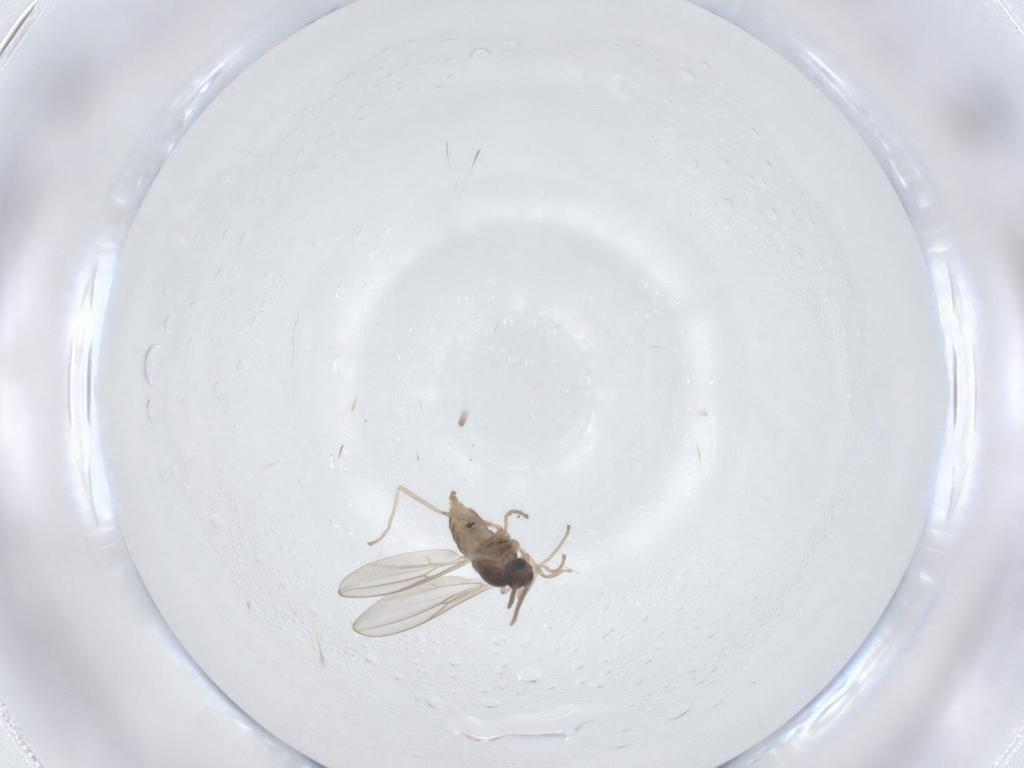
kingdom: Animalia
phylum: Arthropoda
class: Insecta
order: Diptera
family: Cecidomyiidae
